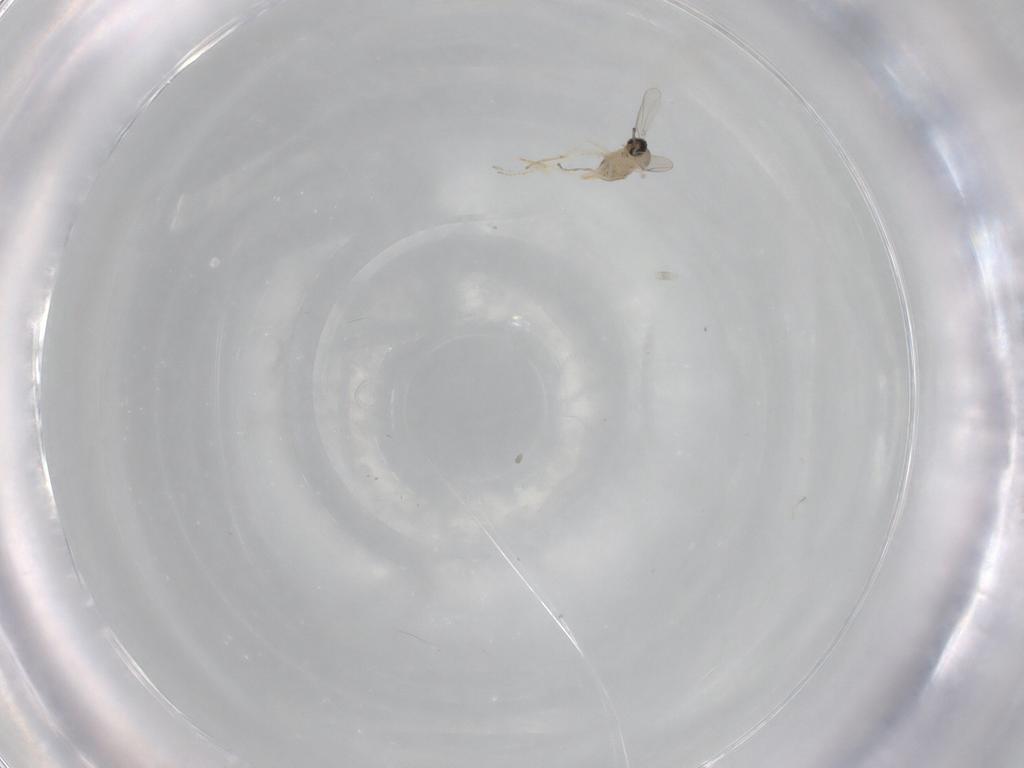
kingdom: Animalia
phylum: Arthropoda
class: Insecta
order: Diptera
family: Cecidomyiidae
